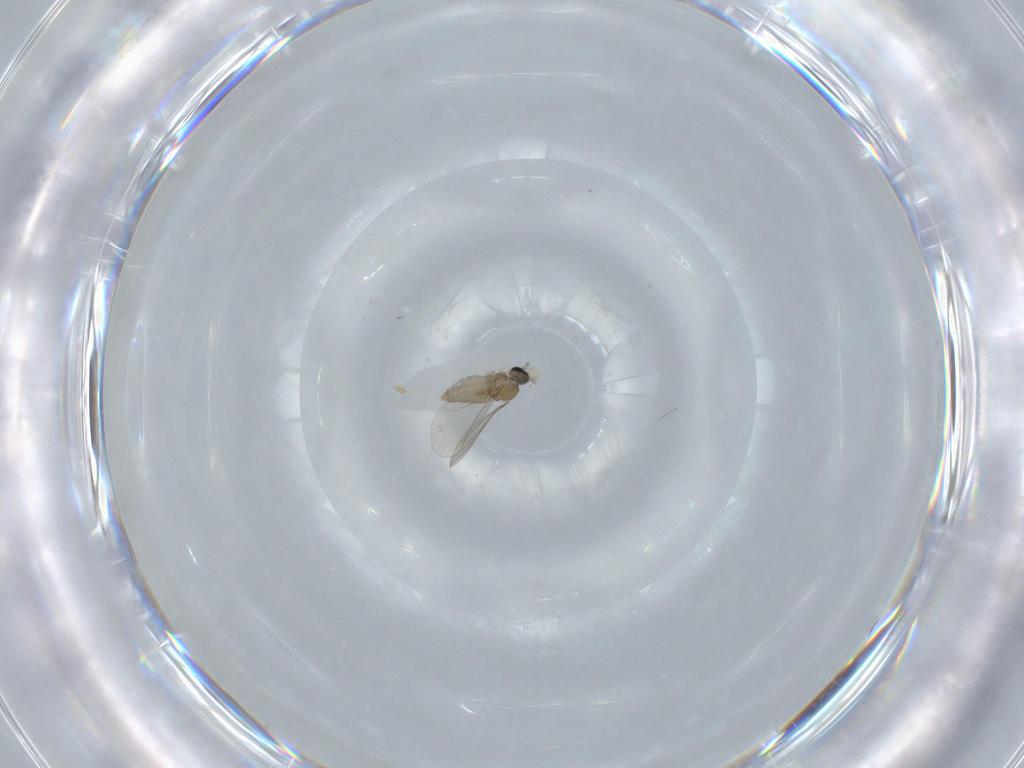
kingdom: Animalia
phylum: Arthropoda
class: Insecta
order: Diptera
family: Cecidomyiidae
